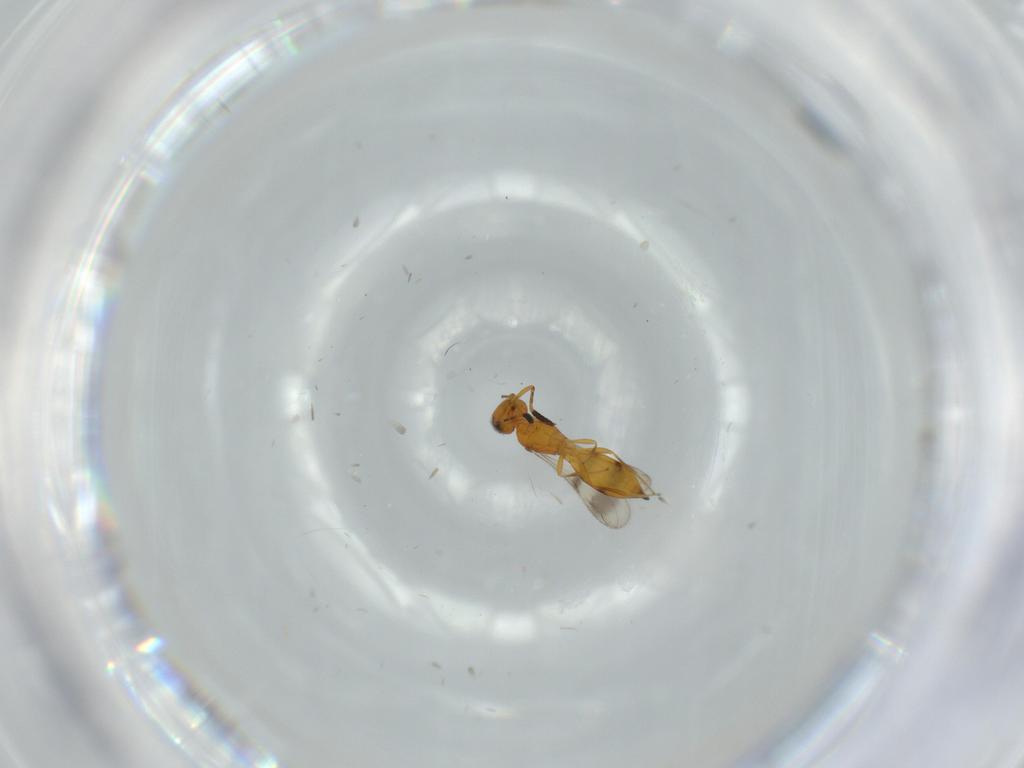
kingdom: Animalia
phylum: Arthropoda
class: Insecta
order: Hymenoptera
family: Scelionidae
